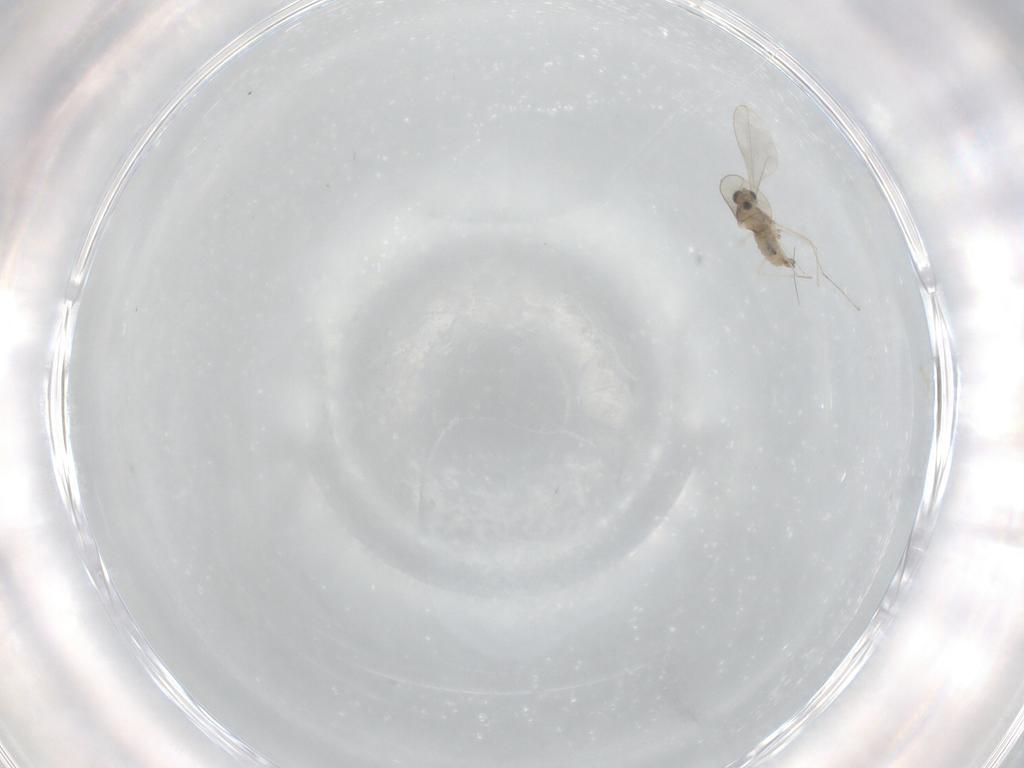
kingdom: Animalia
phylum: Arthropoda
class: Insecta
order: Diptera
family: Cecidomyiidae
